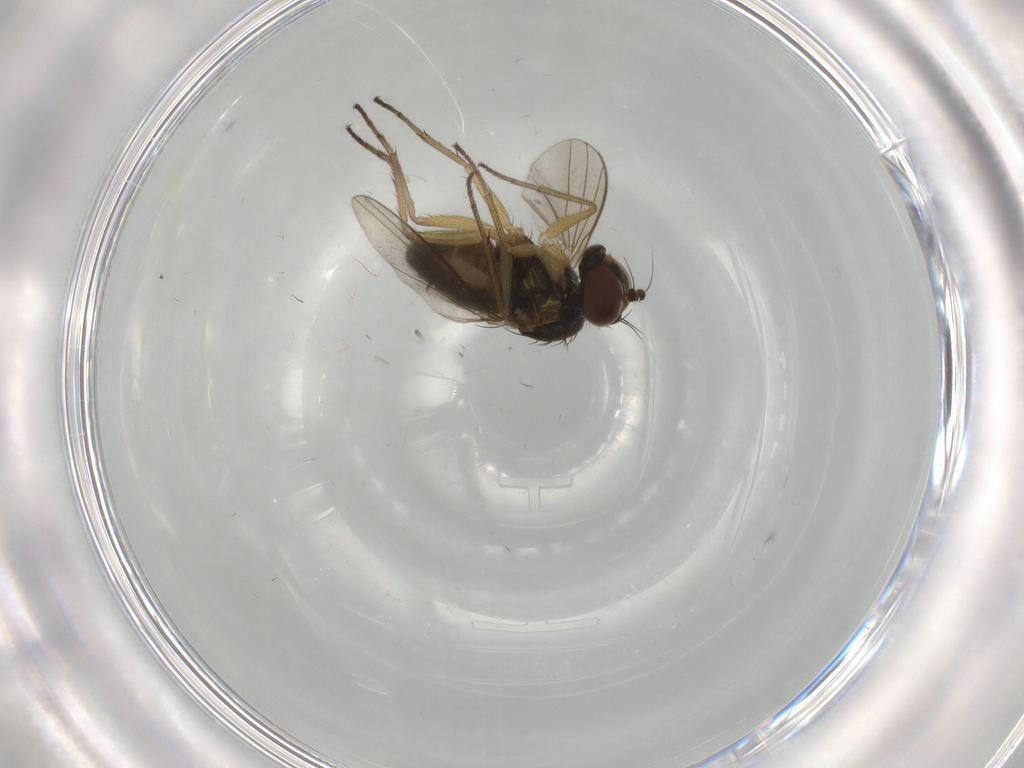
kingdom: Animalia
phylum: Arthropoda
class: Insecta
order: Diptera
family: Dolichopodidae
